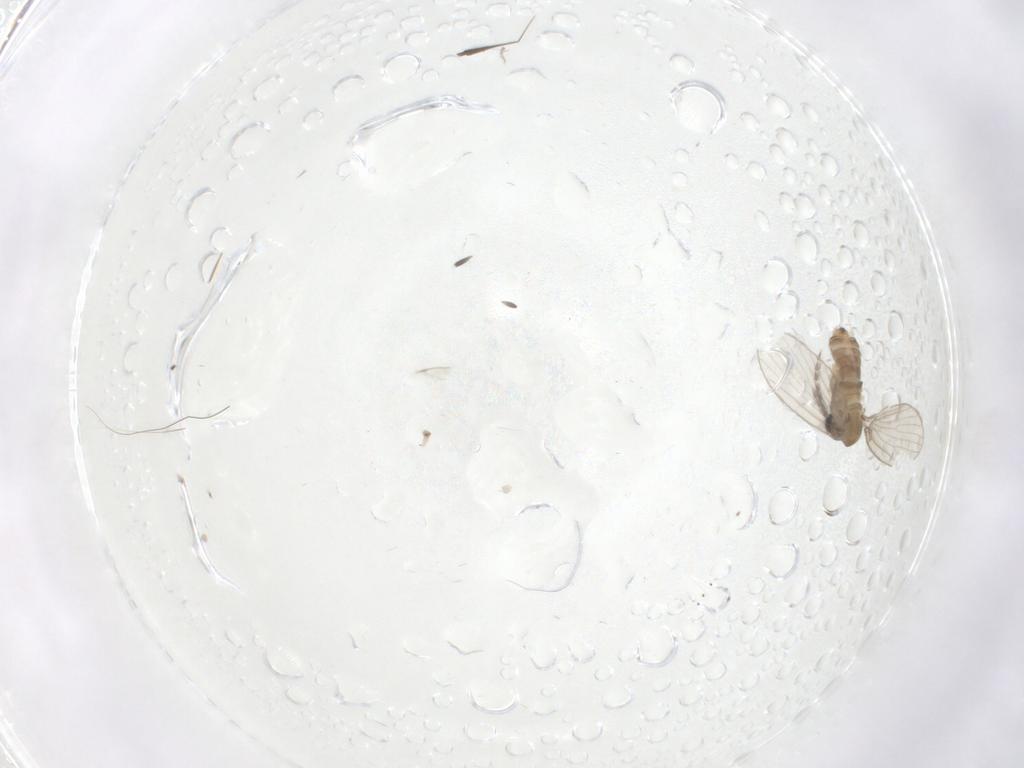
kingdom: Animalia
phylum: Arthropoda
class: Insecta
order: Diptera
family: Psychodidae
